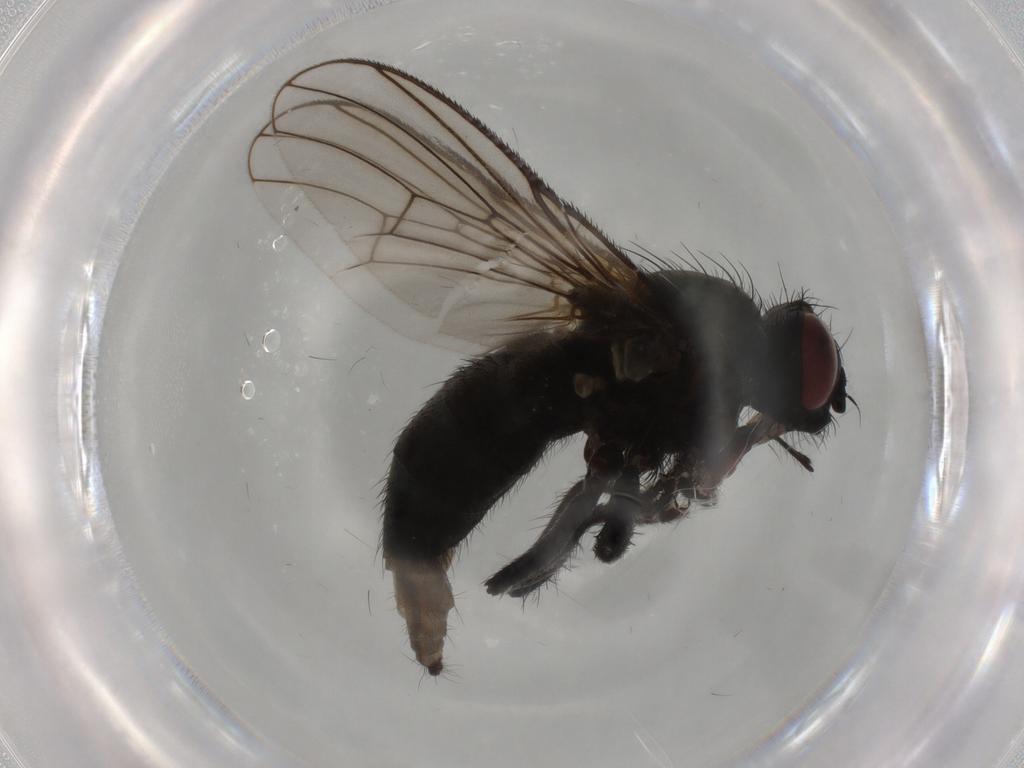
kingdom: Animalia
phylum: Arthropoda
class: Insecta
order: Diptera
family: Muscidae
